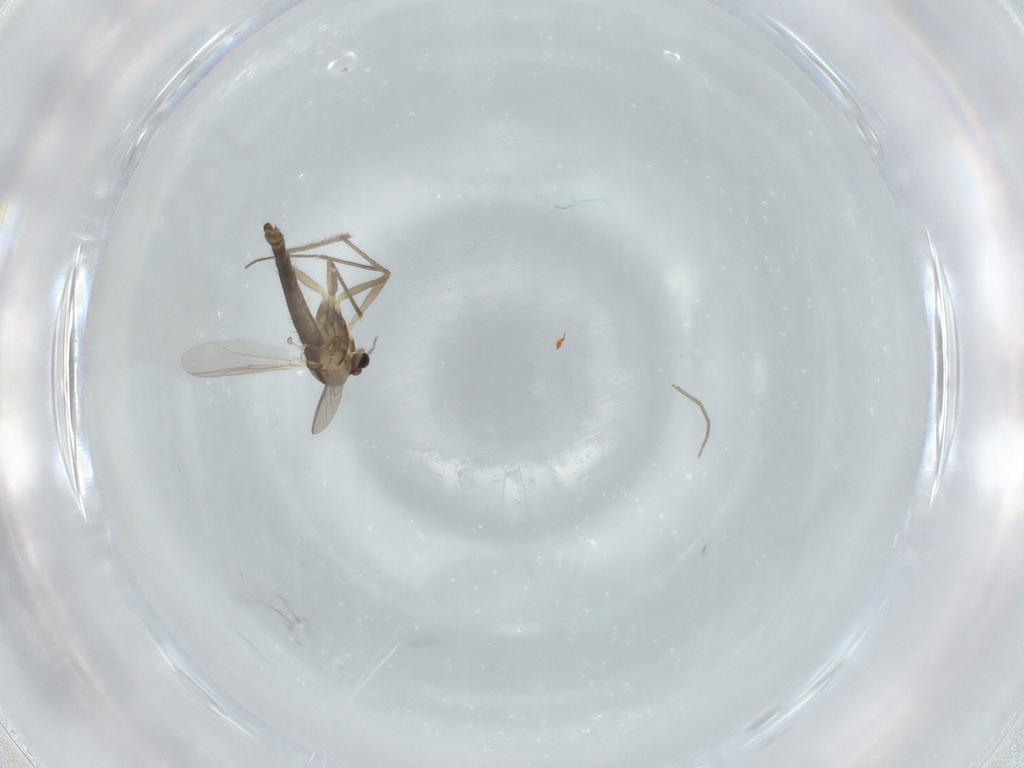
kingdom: Animalia
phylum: Arthropoda
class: Insecta
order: Diptera
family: Chironomidae
